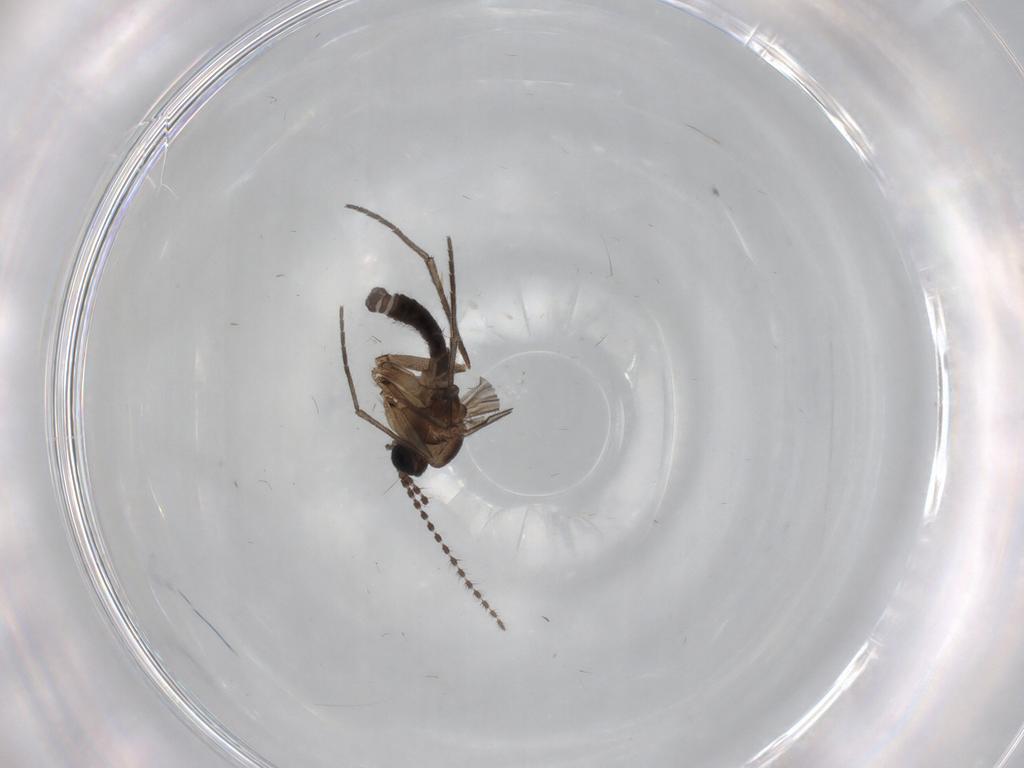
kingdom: Animalia
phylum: Arthropoda
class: Insecta
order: Diptera
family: Sciaridae
